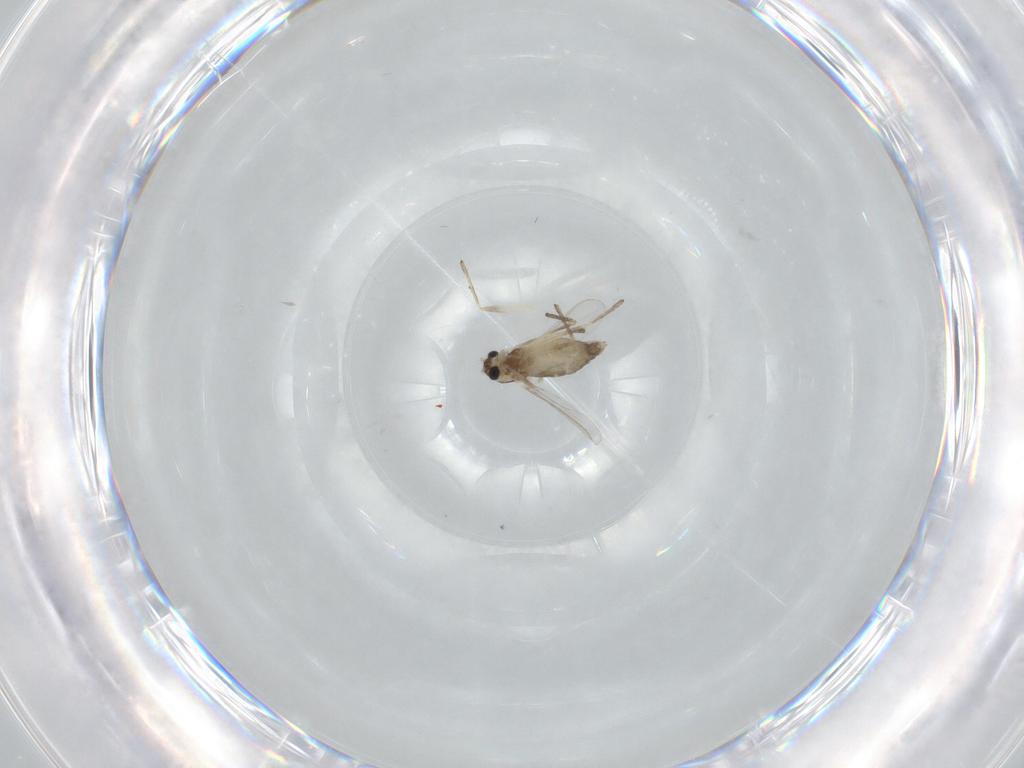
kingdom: Animalia
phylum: Arthropoda
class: Insecta
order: Diptera
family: Chironomidae
